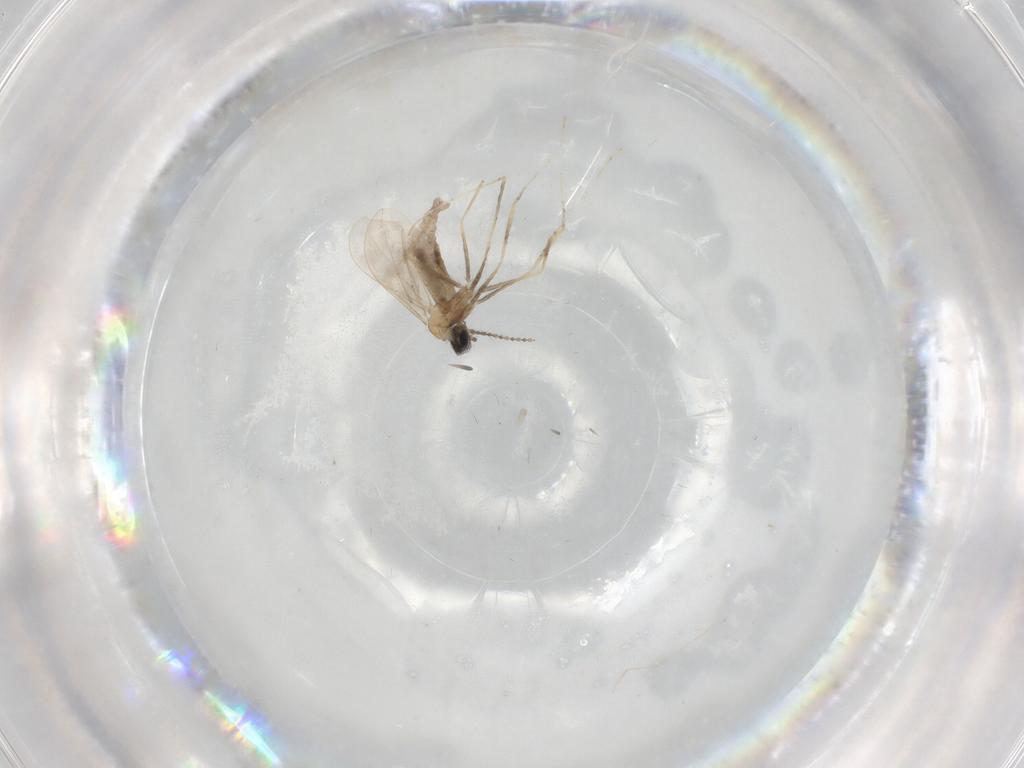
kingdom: Animalia
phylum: Arthropoda
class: Insecta
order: Diptera
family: Cecidomyiidae
